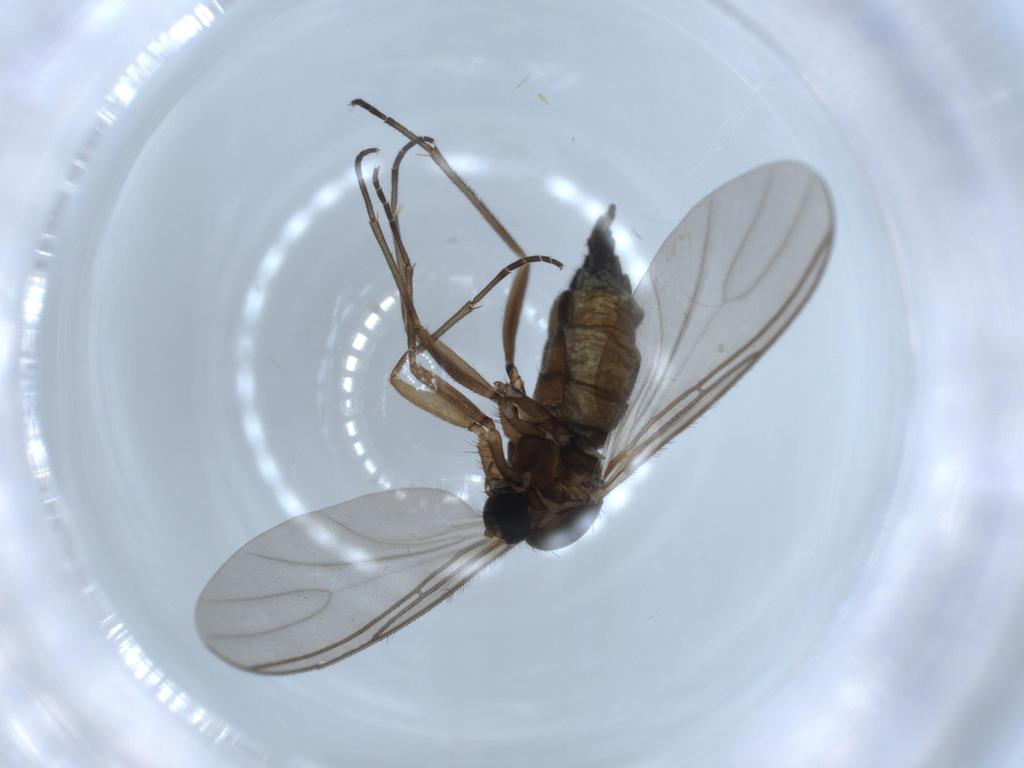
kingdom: Animalia
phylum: Arthropoda
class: Insecta
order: Diptera
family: Sciaridae
